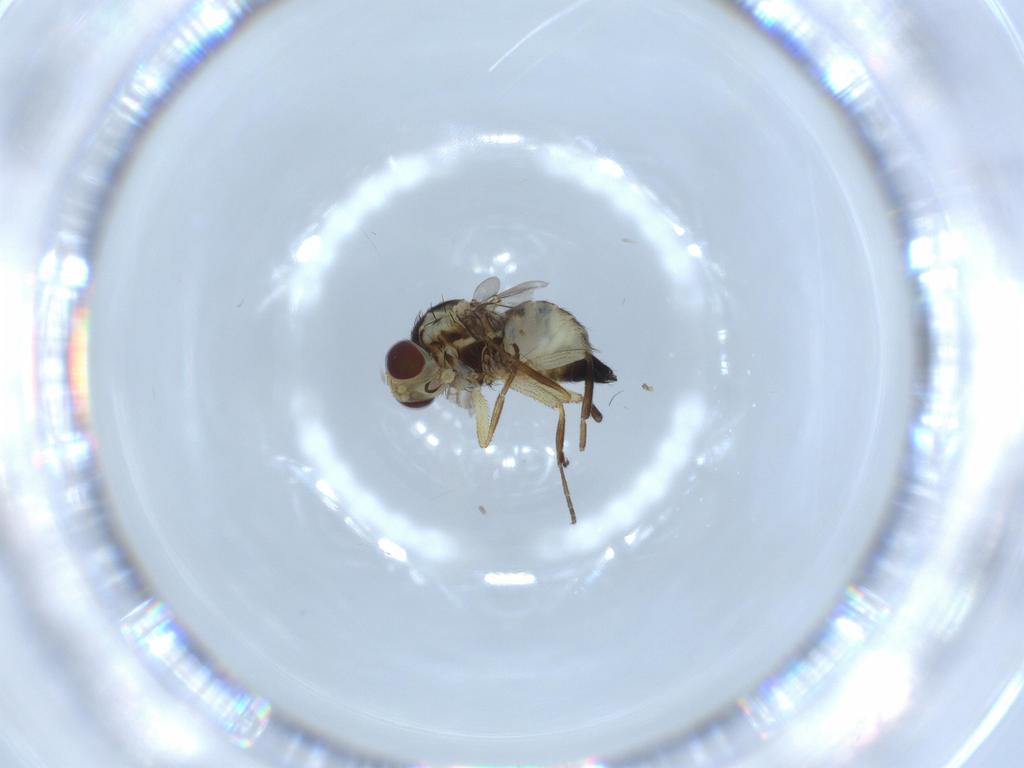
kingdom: Animalia
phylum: Arthropoda
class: Insecta
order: Diptera
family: Agromyzidae
